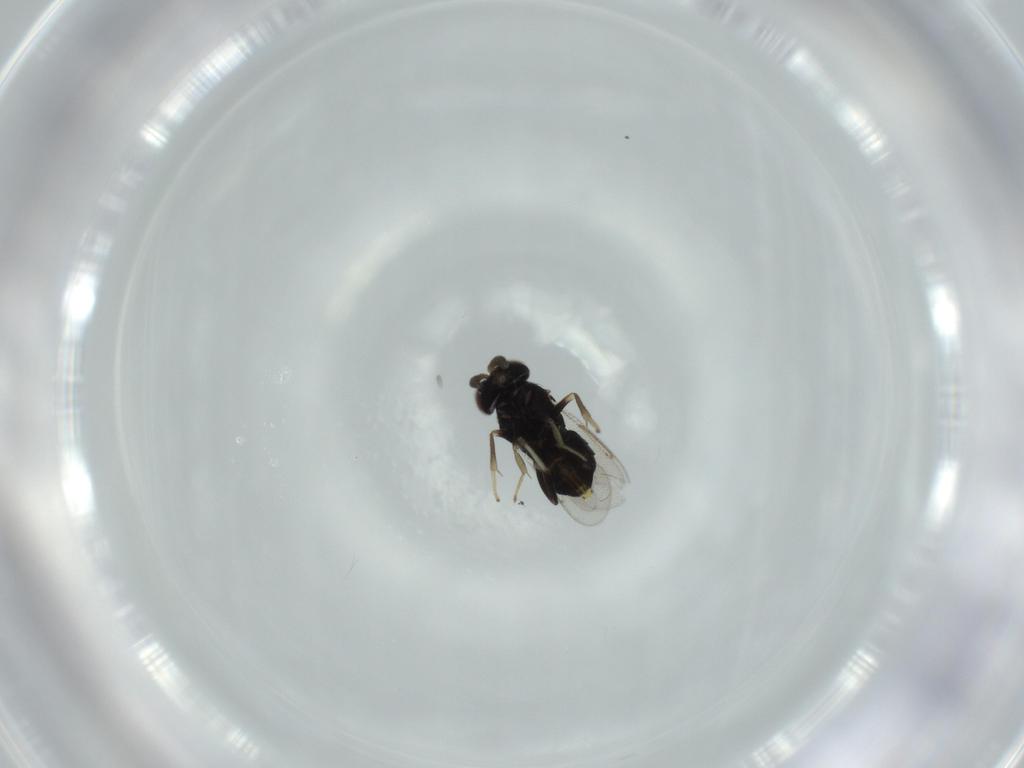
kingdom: Animalia
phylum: Arthropoda
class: Insecta
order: Hymenoptera
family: Aphelinidae
